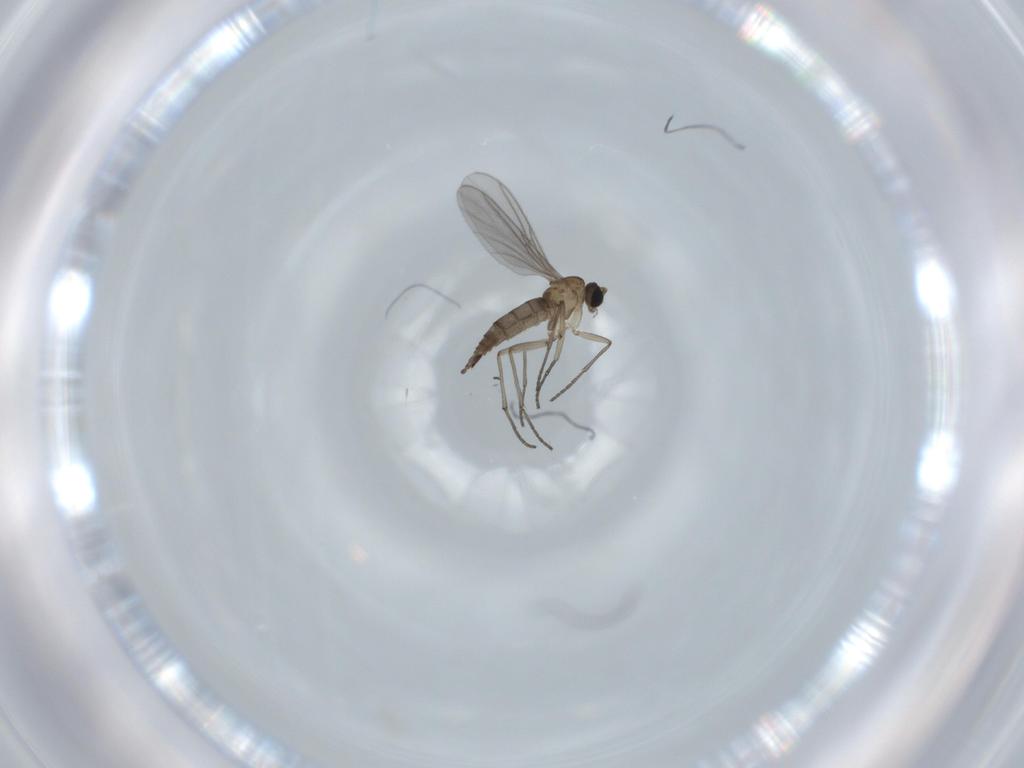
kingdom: Animalia
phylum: Arthropoda
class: Insecta
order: Diptera
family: Sciaridae
